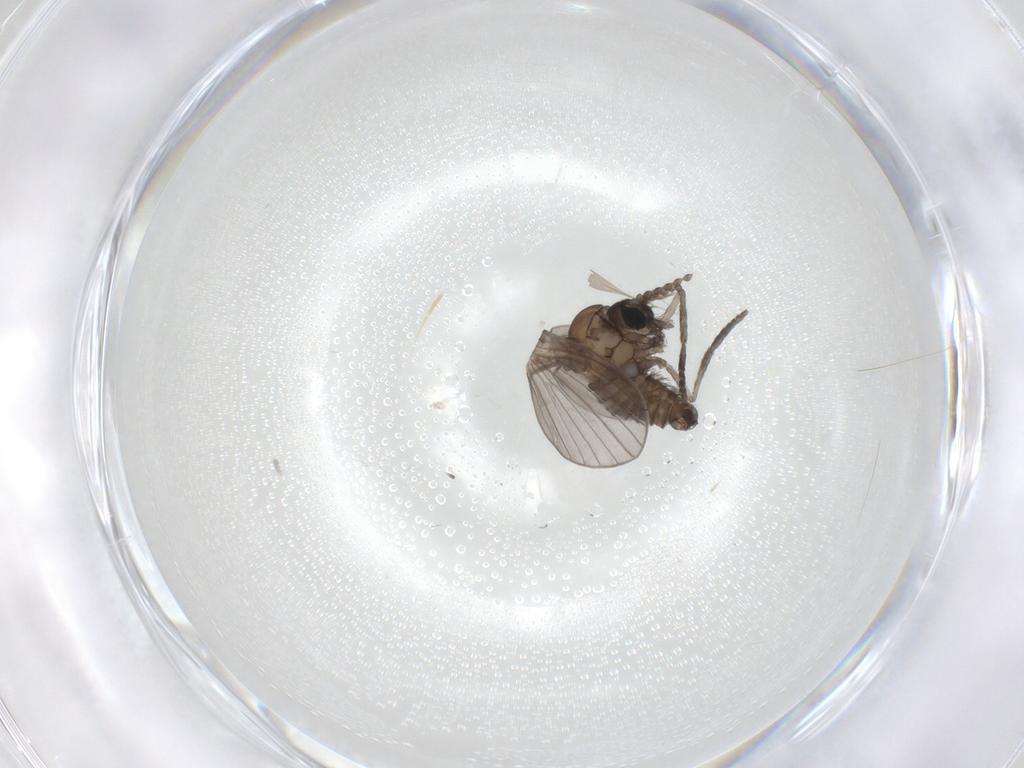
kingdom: Animalia
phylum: Arthropoda
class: Insecta
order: Diptera
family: Psychodidae
